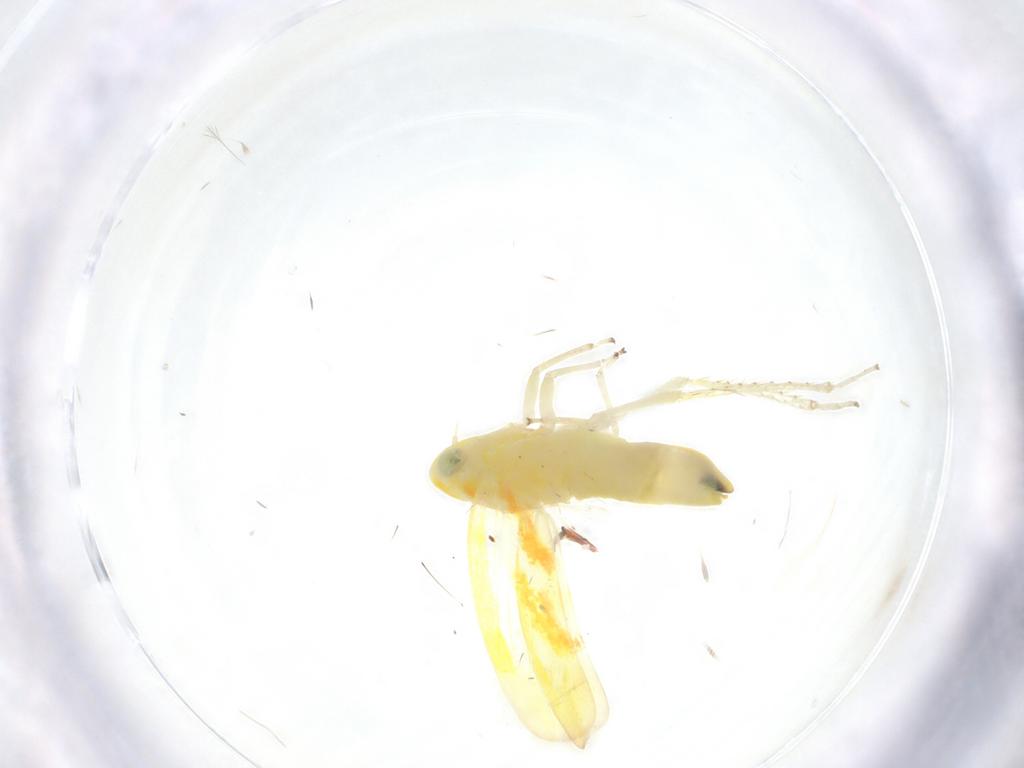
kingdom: Animalia
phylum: Arthropoda
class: Insecta
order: Hemiptera
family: Cicadellidae
